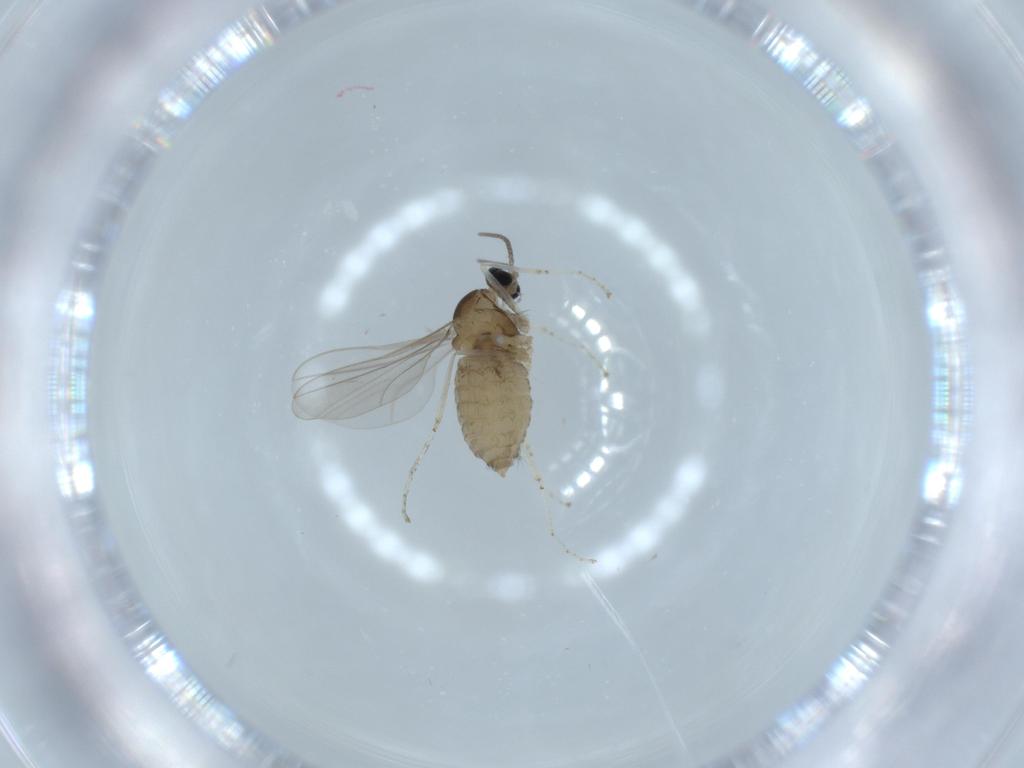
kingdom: Animalia
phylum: Arthropoda
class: Insecta
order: Diptera
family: Cecidomyiidae
